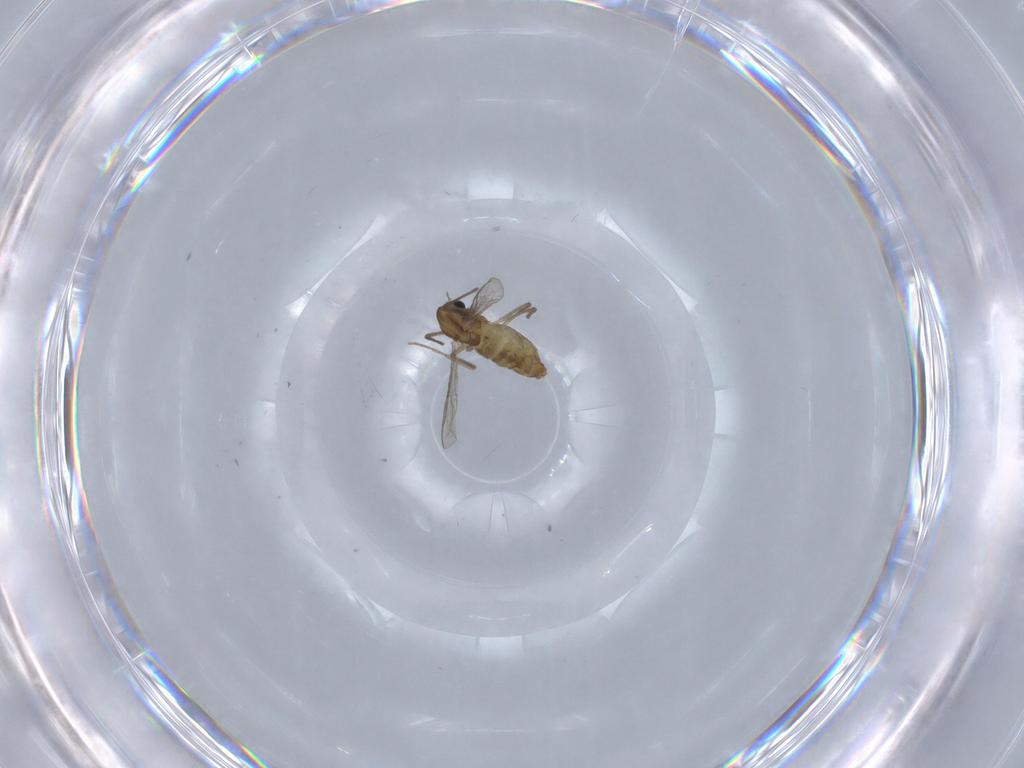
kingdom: Animalia
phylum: Arthropoda
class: Insecta
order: Diptera
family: Chironomidae
